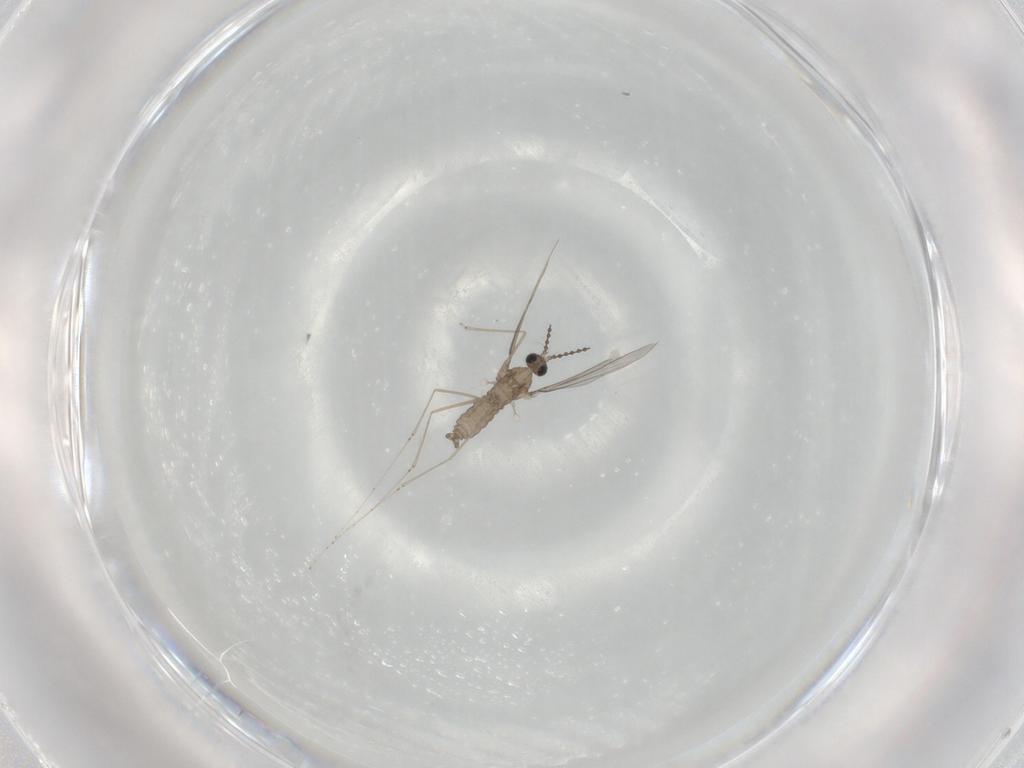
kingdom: Animalia
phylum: Arthropoda
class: Insecta
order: Diptera
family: Cecidomyiidae
